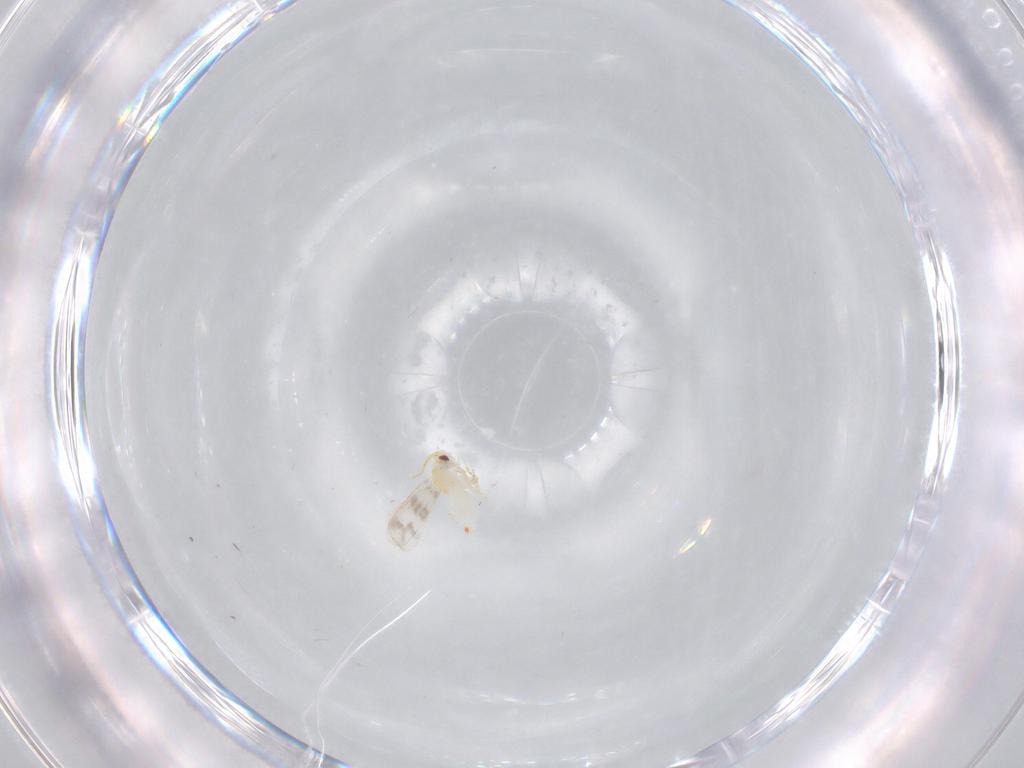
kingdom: Animalia
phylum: Arthropoda
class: Insecta
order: Hemiptera
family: Aleyrodidae
